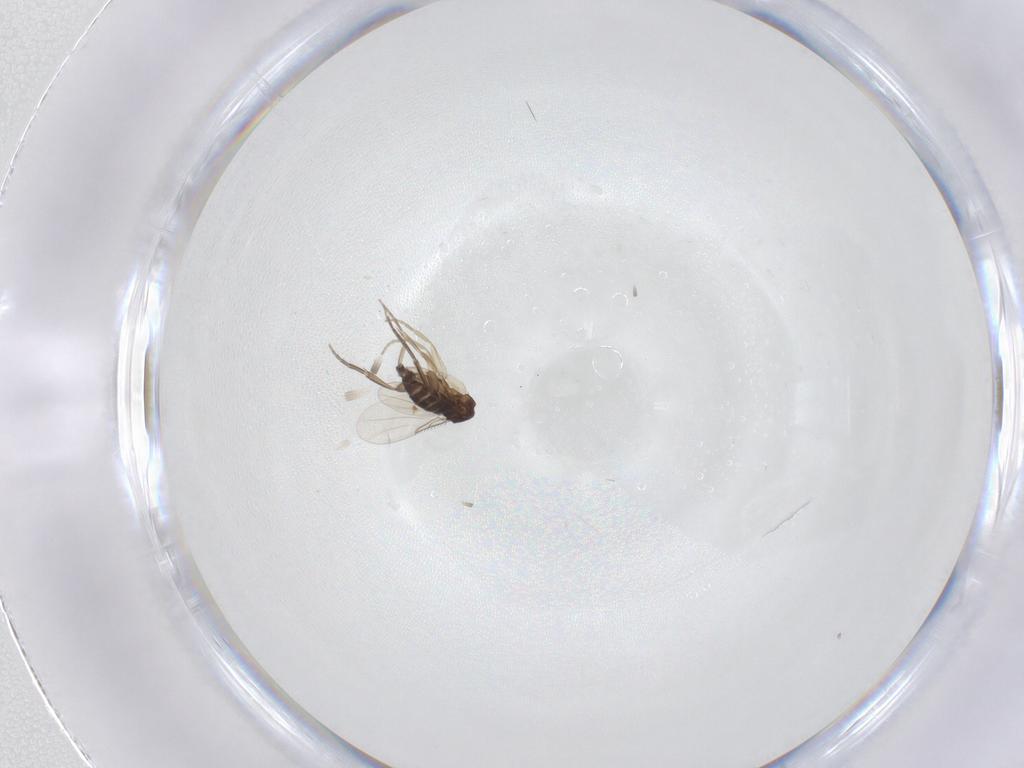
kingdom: Animalia
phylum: Arthropoda
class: Insecta
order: Diptera
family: Phoridae
